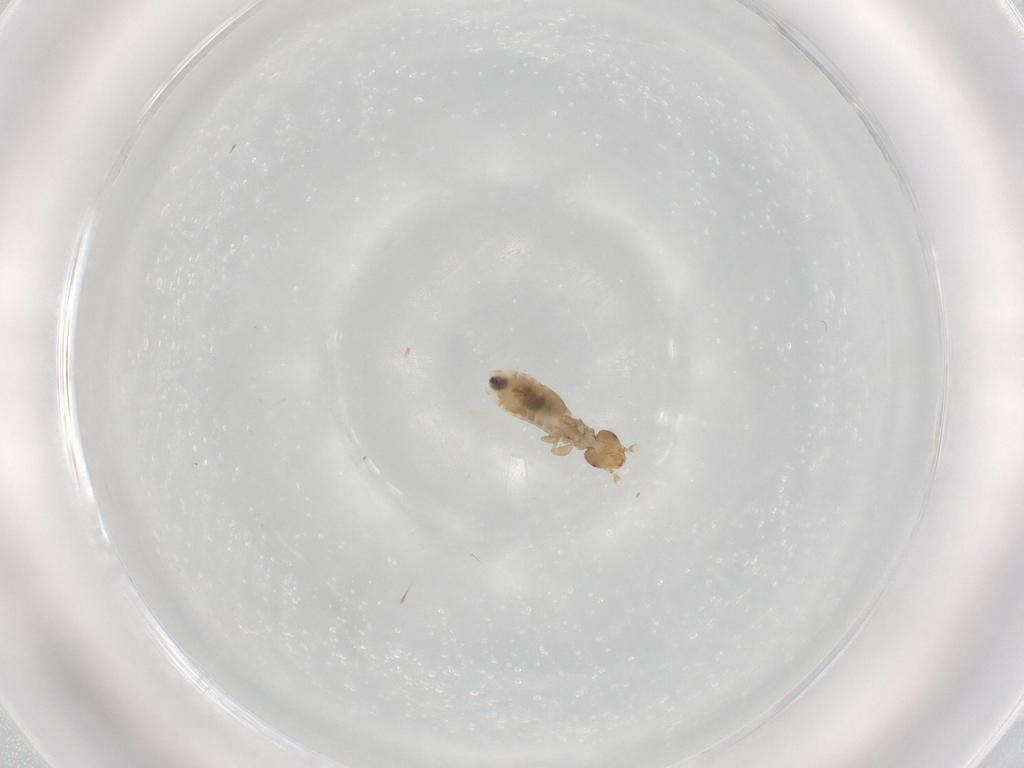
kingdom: Animalia
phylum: Arthropoda
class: Insecta
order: Psocodea
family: Liposcelididae
